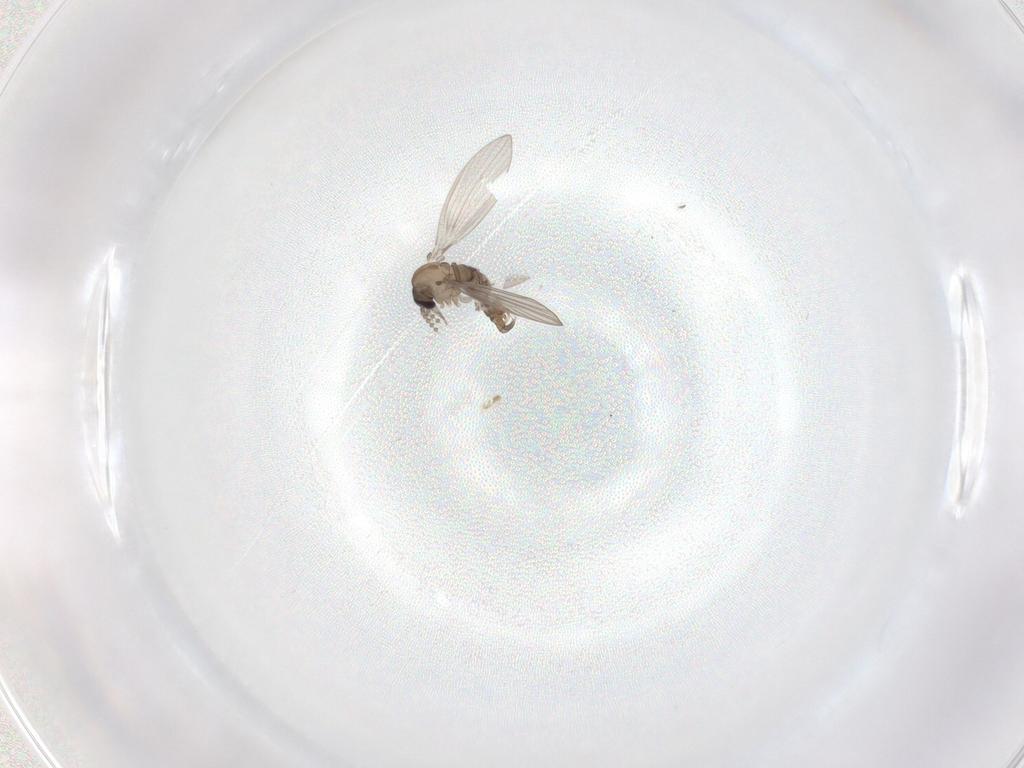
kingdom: Animalia
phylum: Arthropoda
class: Insecta
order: Diptera
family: Psychodidae
